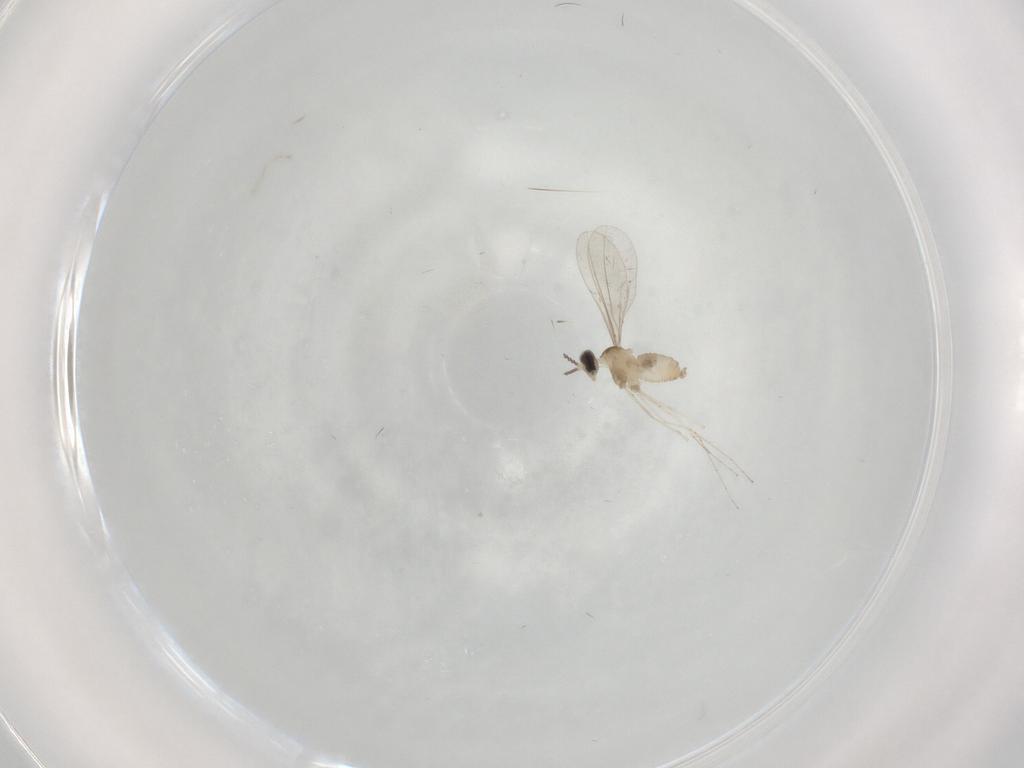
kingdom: Animalia
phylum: Arthropoda
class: Insecta
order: Diptera
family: Cecidomyiidae
